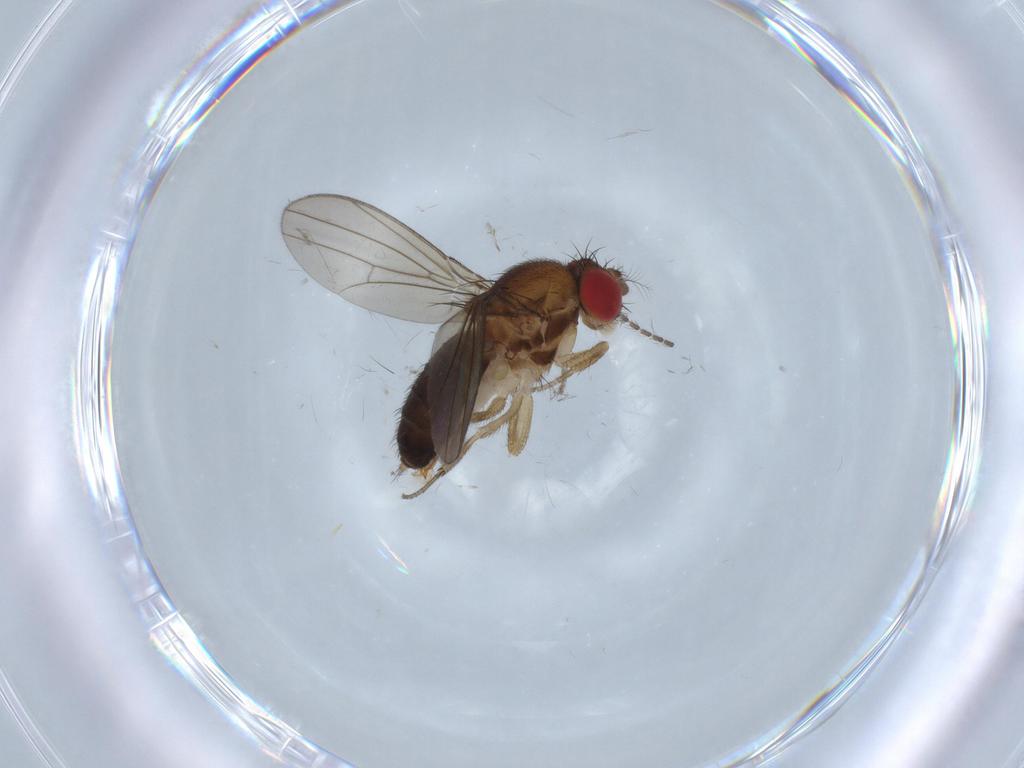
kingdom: Animalia
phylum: Arthropoda
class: Insecta
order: Diptera
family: Drosophilidae
